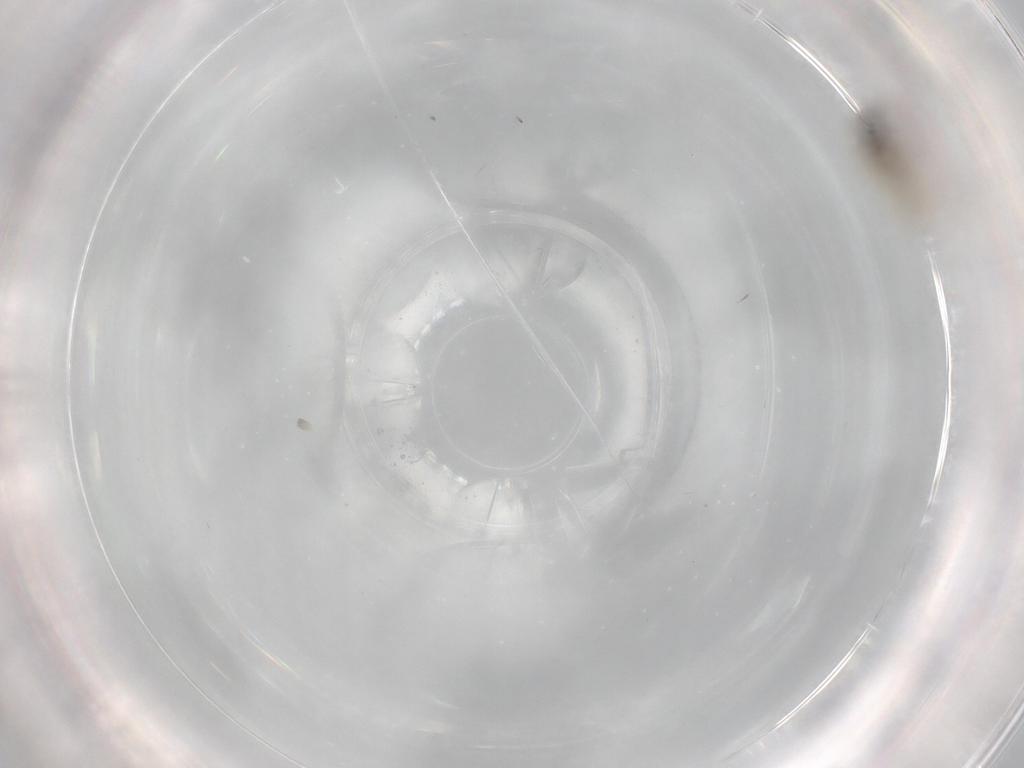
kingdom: Animalia
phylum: Arthropoda
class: Insecta
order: Diptera
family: Cecidomyiidae
